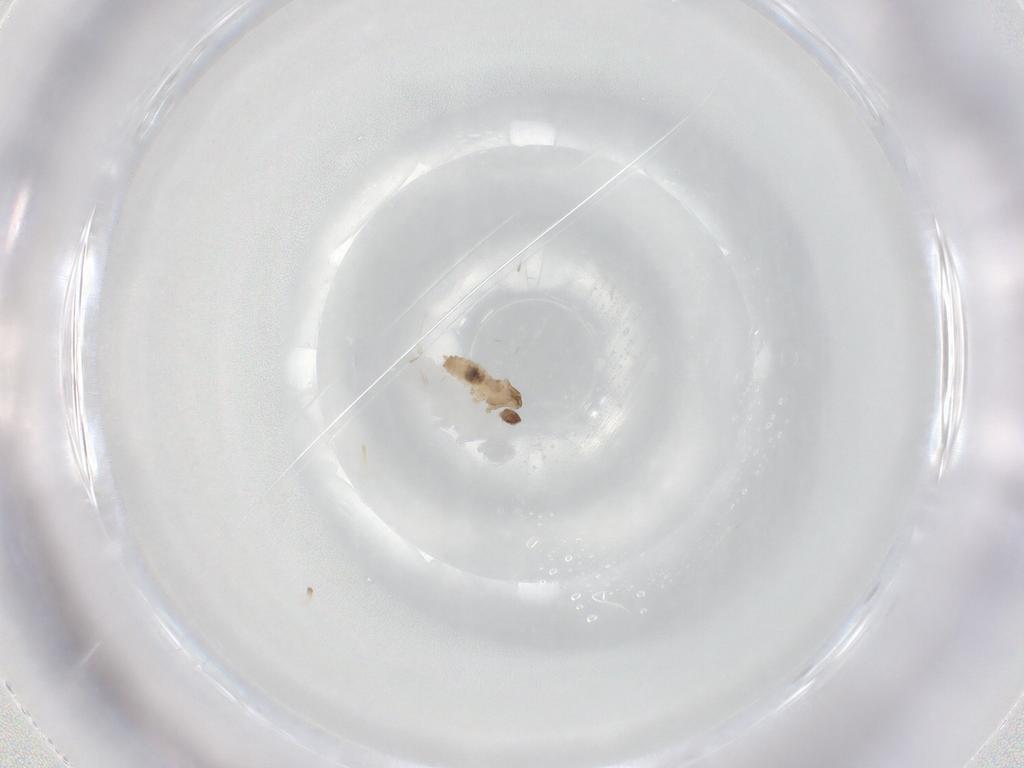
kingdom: Animalia
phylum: Arthropoda
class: Insecta
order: Diptera
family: Cecidomyiidae
